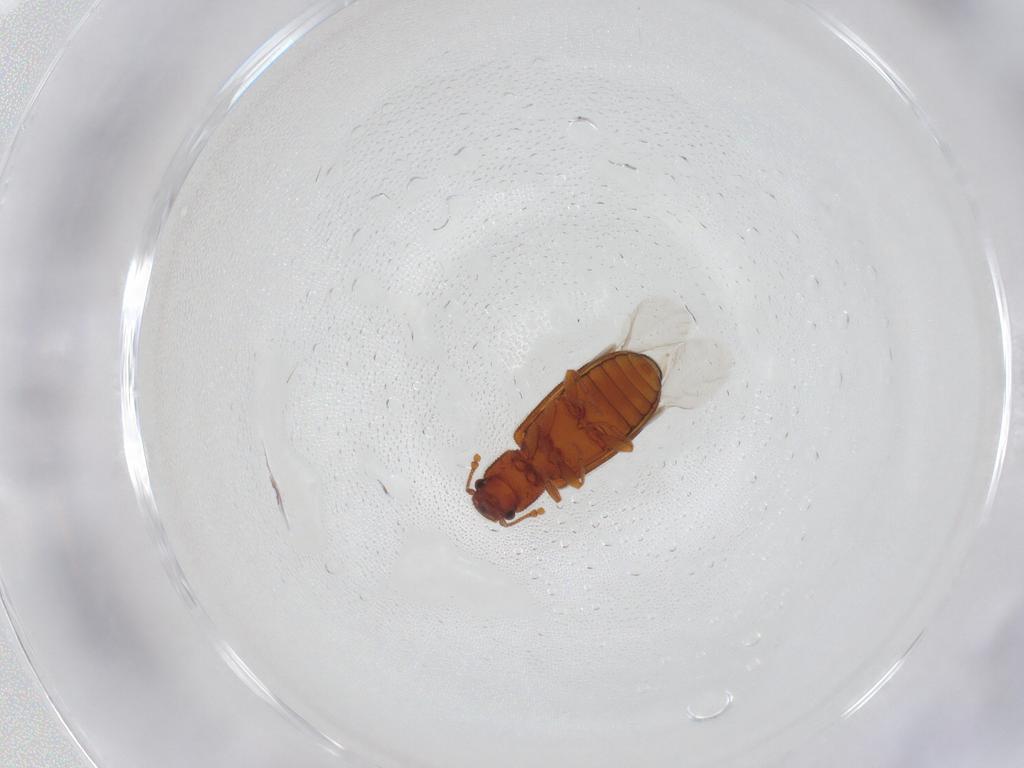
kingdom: Animalia
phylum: Arthropoda
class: Insecta
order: Coleoptera
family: Mycetophagidae
